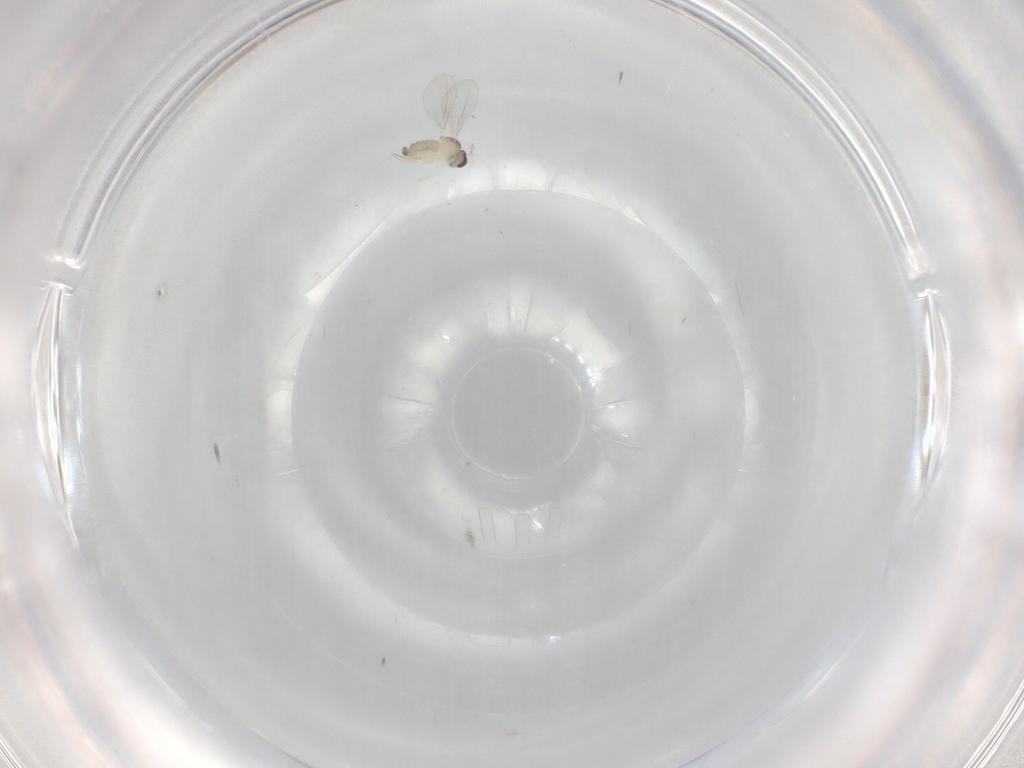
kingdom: Animalia
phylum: Arthropoda
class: Insecta
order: Diptera
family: Cecidomyiidae
